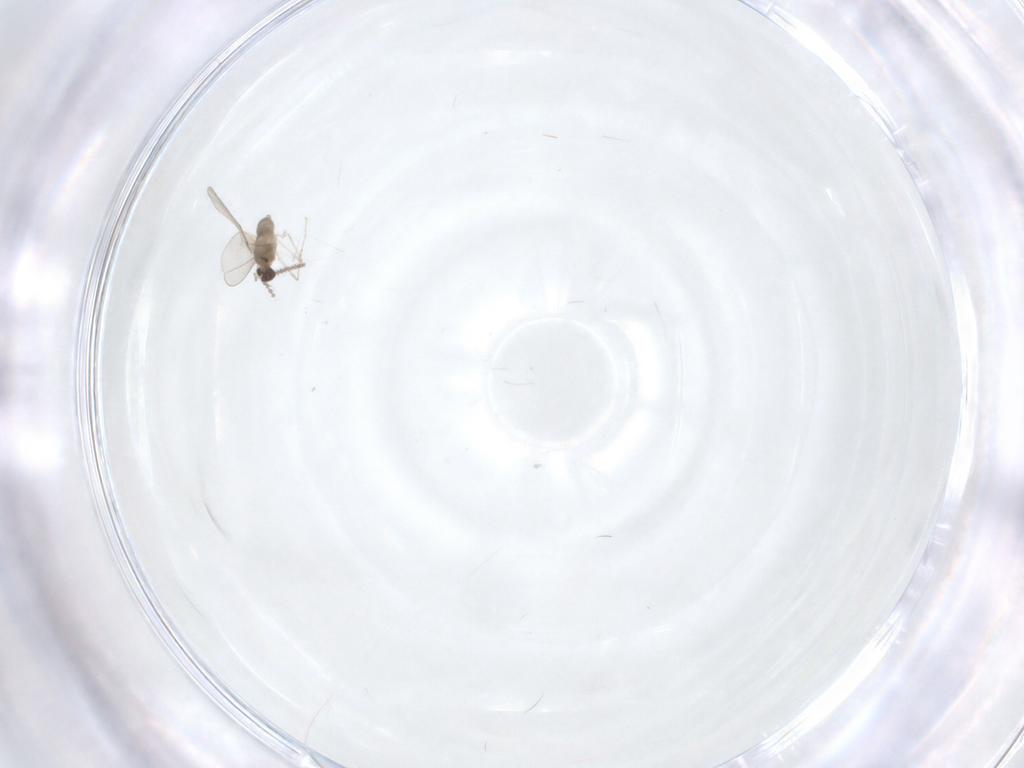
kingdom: Animalia
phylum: Arthropoda
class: Insecta
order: Diptera
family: Cecidomyiidae
